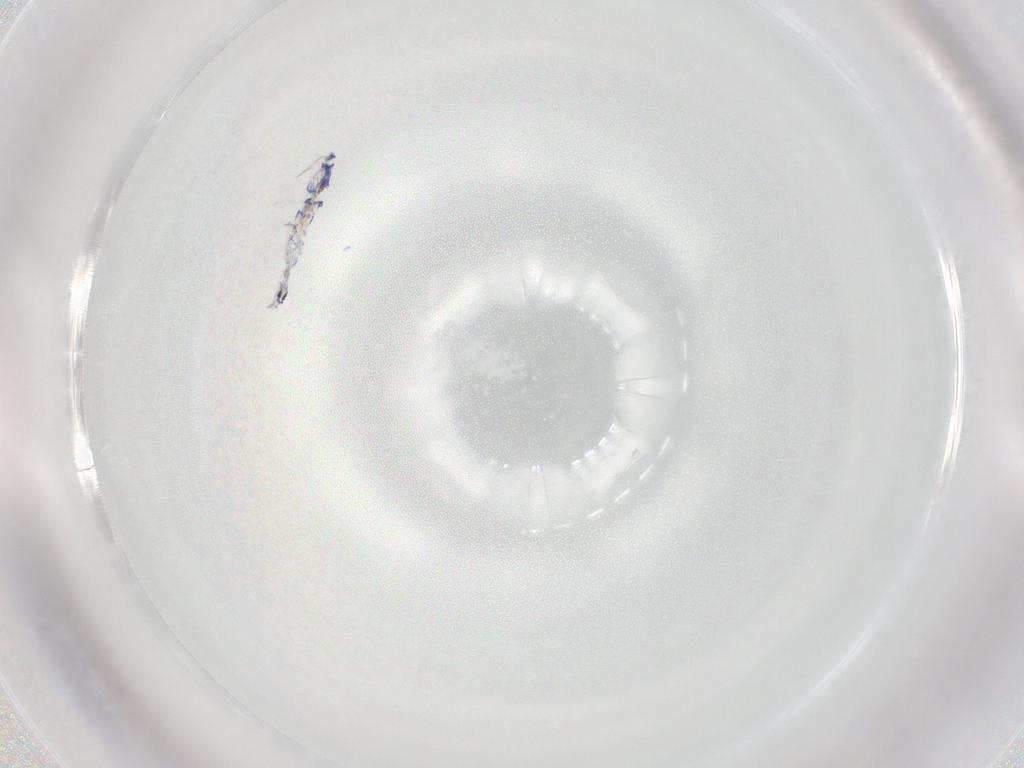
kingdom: Animalia
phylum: Arthropoda
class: Collembola
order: Entomobryomorpha
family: Entomobryidae
